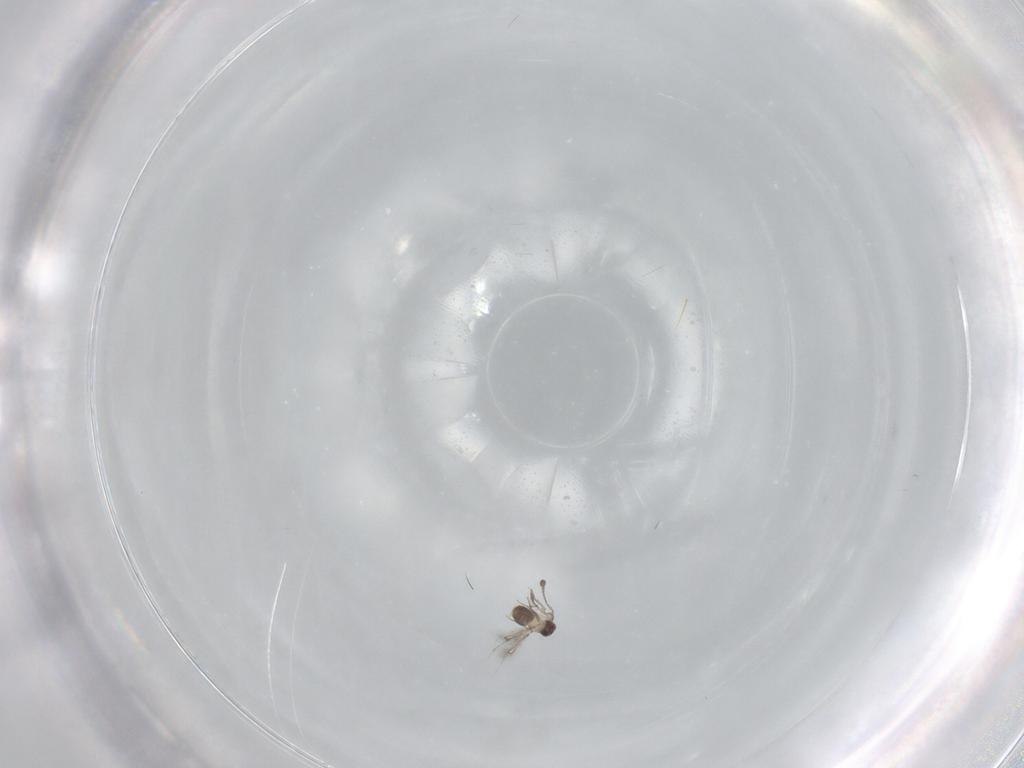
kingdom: Animalia
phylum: Arthropoda
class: Insecta
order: Hymenoptera
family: Mymaridae
